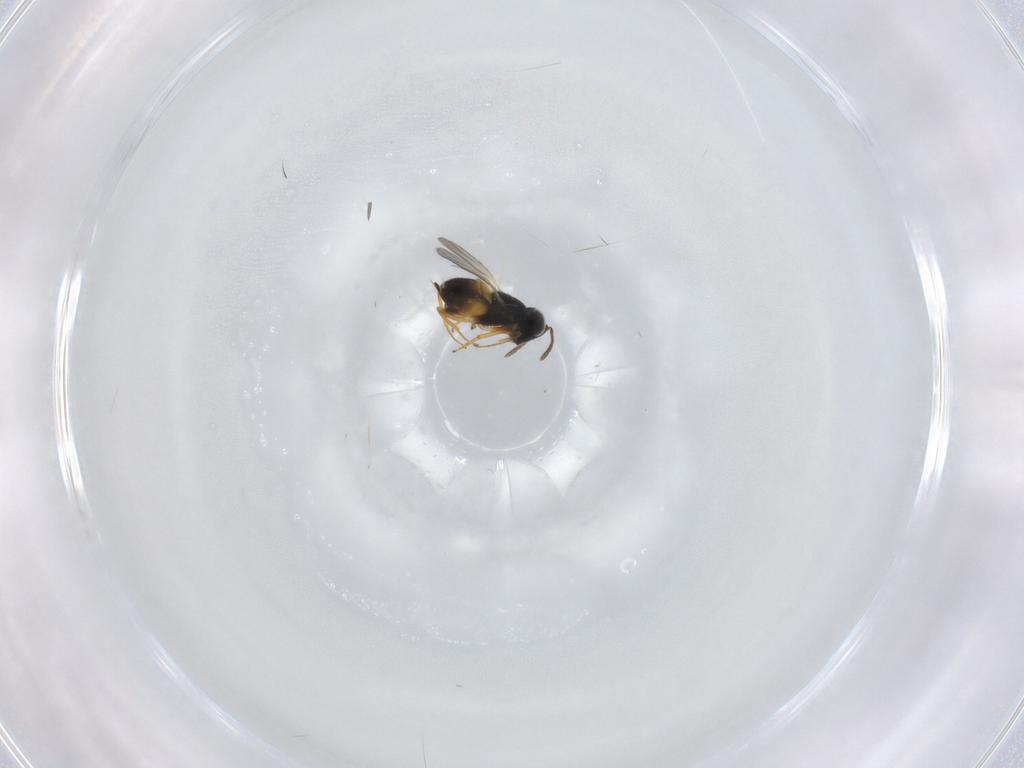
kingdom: Animalia
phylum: Arthropoda
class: Insecta
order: Hymenoptera
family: Encyrtidae
